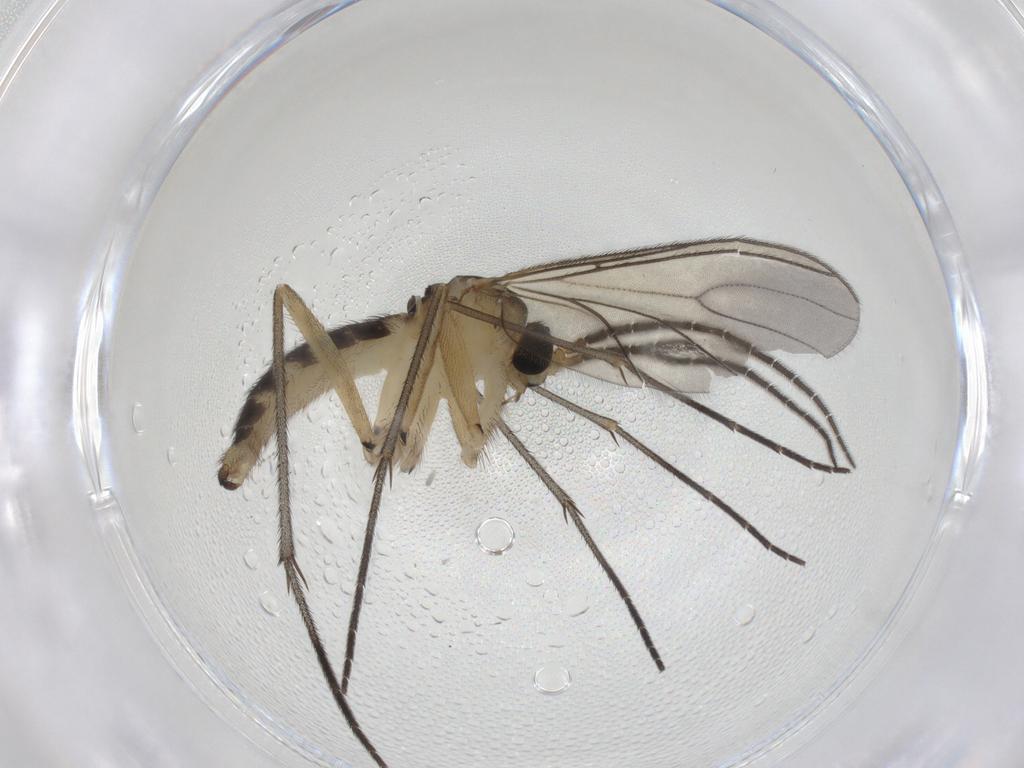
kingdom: Animalia
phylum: Arthropoda
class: Insecta
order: Diptera
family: Sciaridae
